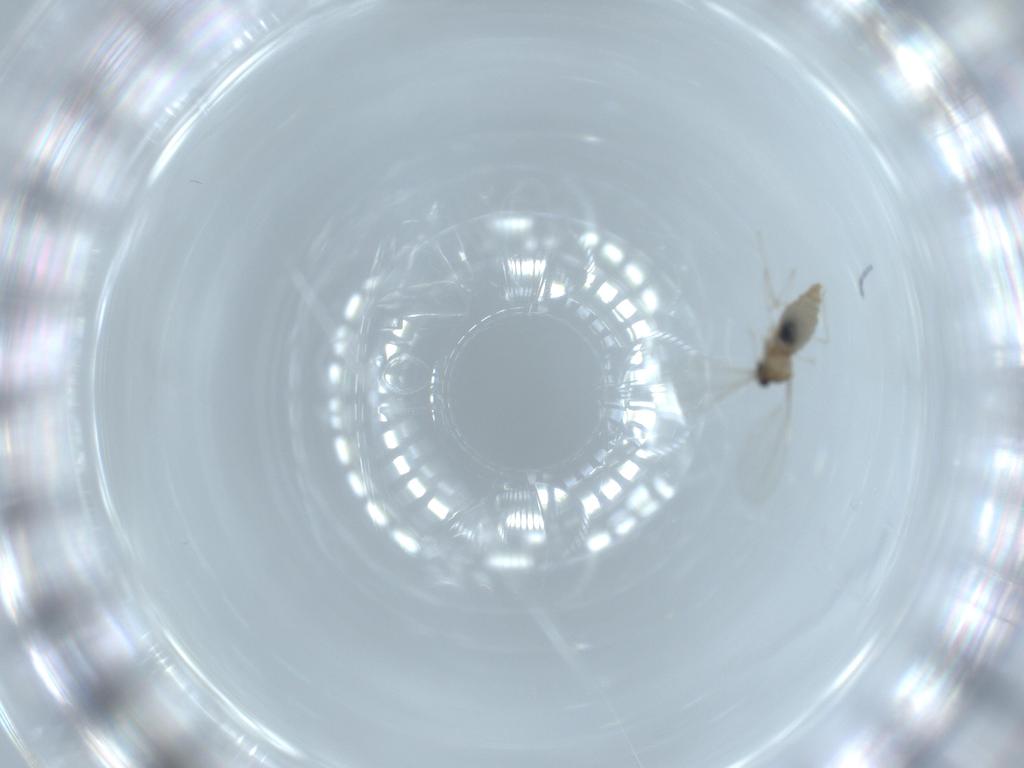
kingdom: Animalia
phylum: Arthropoda
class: Insecta
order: Diptera
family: Cecidomyiidae
